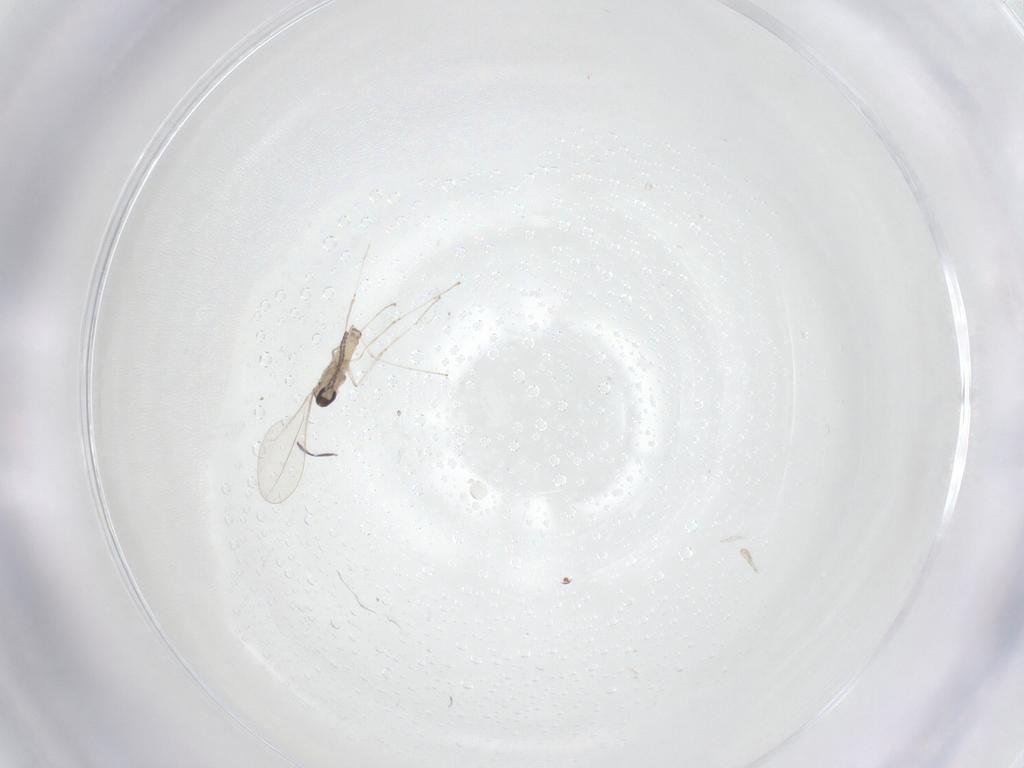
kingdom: Animalia
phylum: Arthropoda
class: Insecta
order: Diptera
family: Cecidomyiidae
